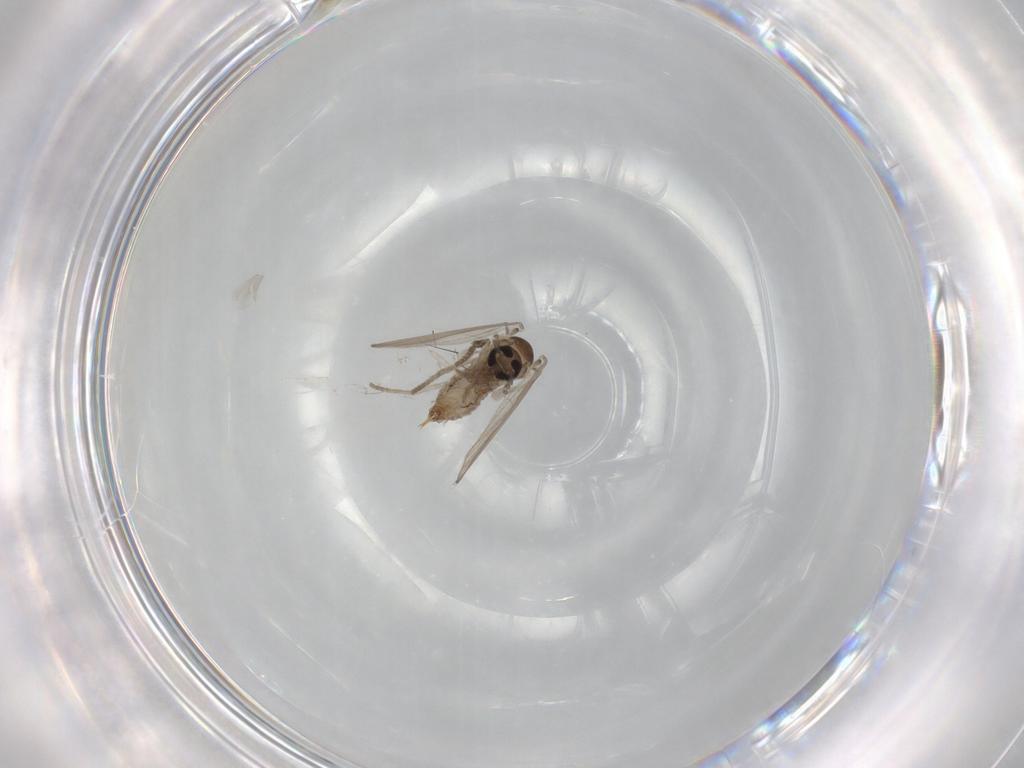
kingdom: Animalia
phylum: Arthropoda
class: Insecta
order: Diptera
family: Psychodidae
